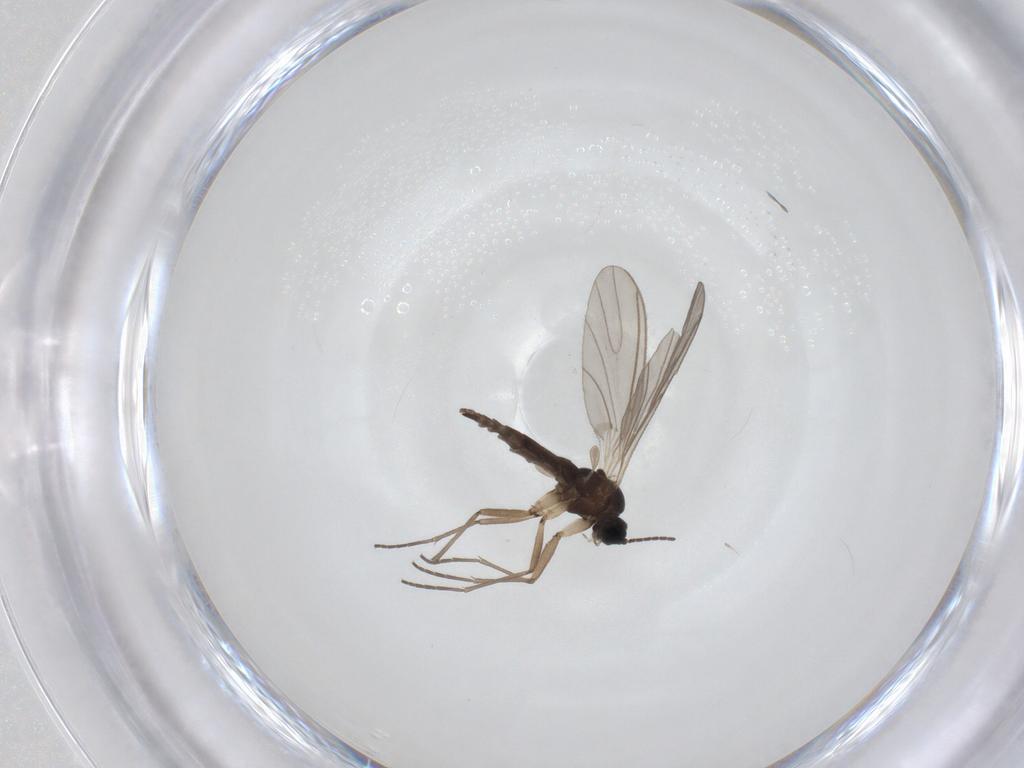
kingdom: Animalia
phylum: Arthropoda
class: Insecta
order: Diptera
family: Sciaridae
